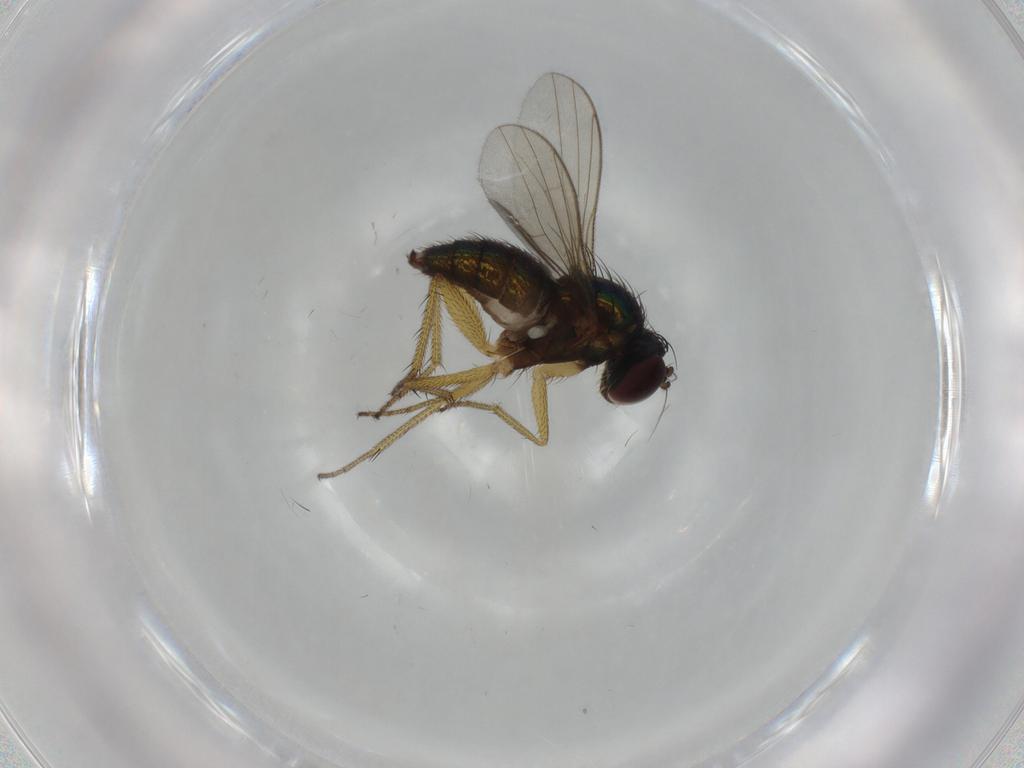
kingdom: Animalia
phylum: Arthropoda
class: Insecta
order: Diptera
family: Dolichopodidae
